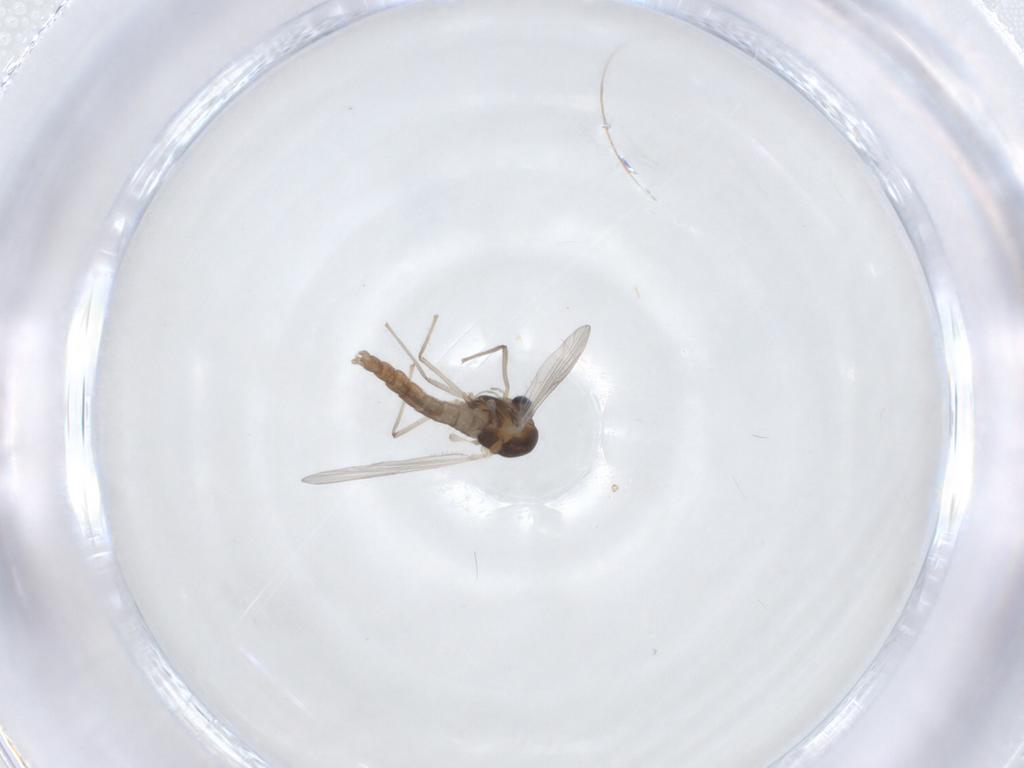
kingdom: Animalia
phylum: Arthropoda
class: Insecta
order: Diptera
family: Chironomidae
